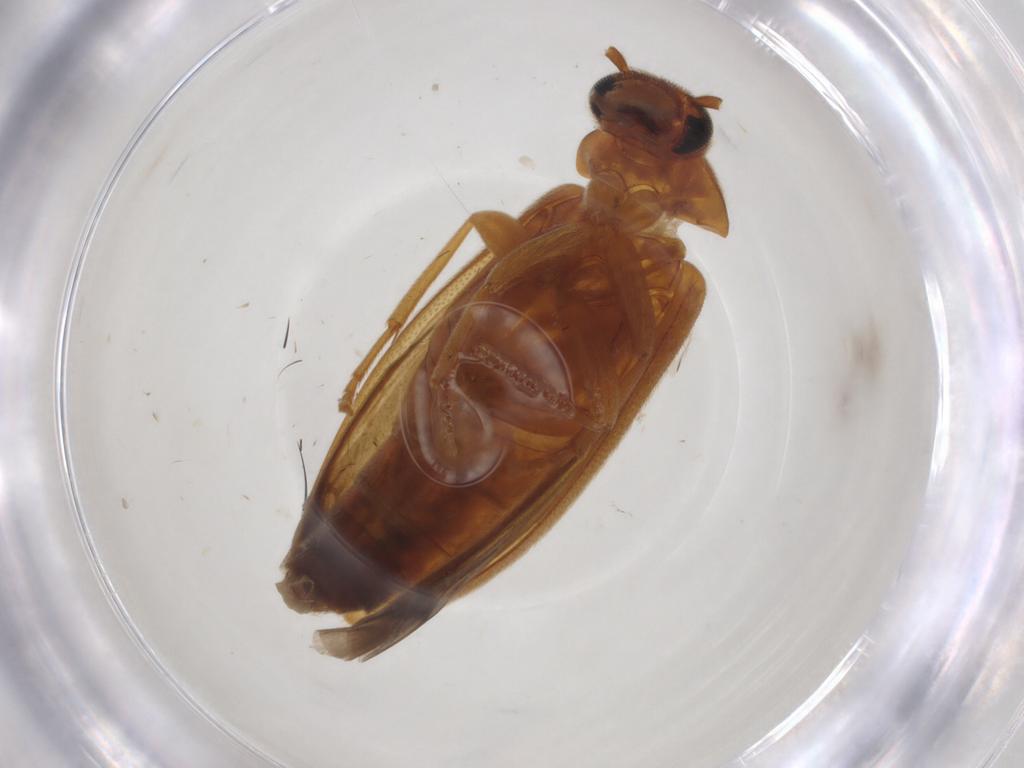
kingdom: Animalia
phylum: Arthropoda
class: Insecta
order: Coleoptera
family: Scraptiidae
